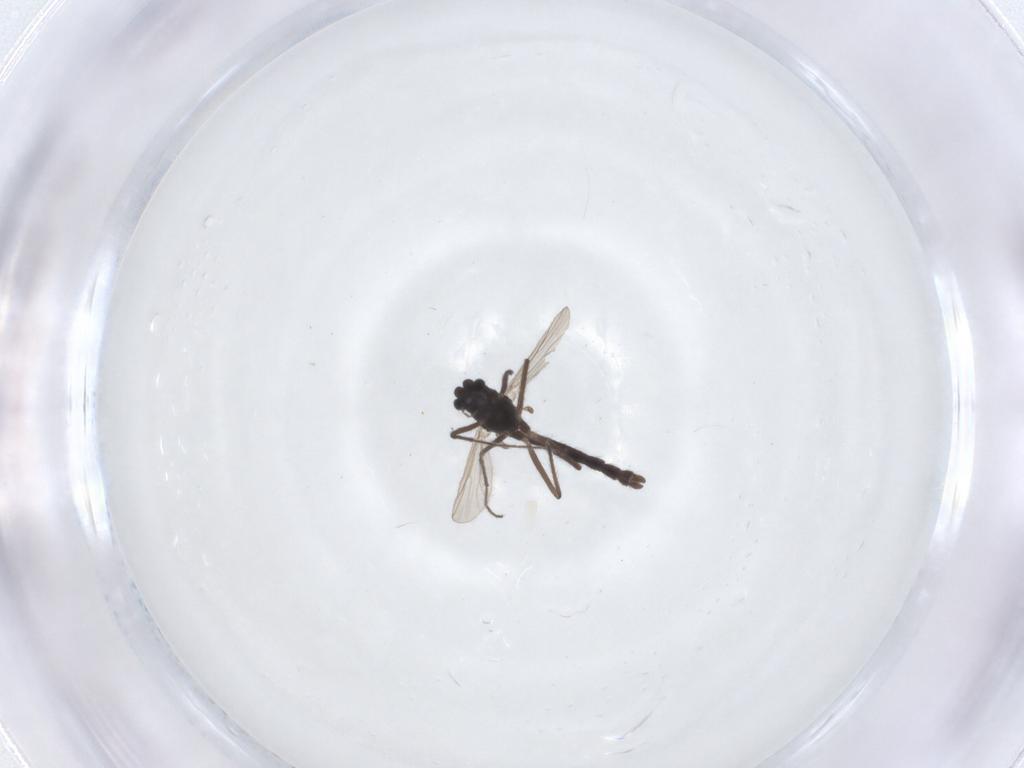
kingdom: Animalia
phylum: Arthropoda
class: Insecta
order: Diptera
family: Chironomidae
